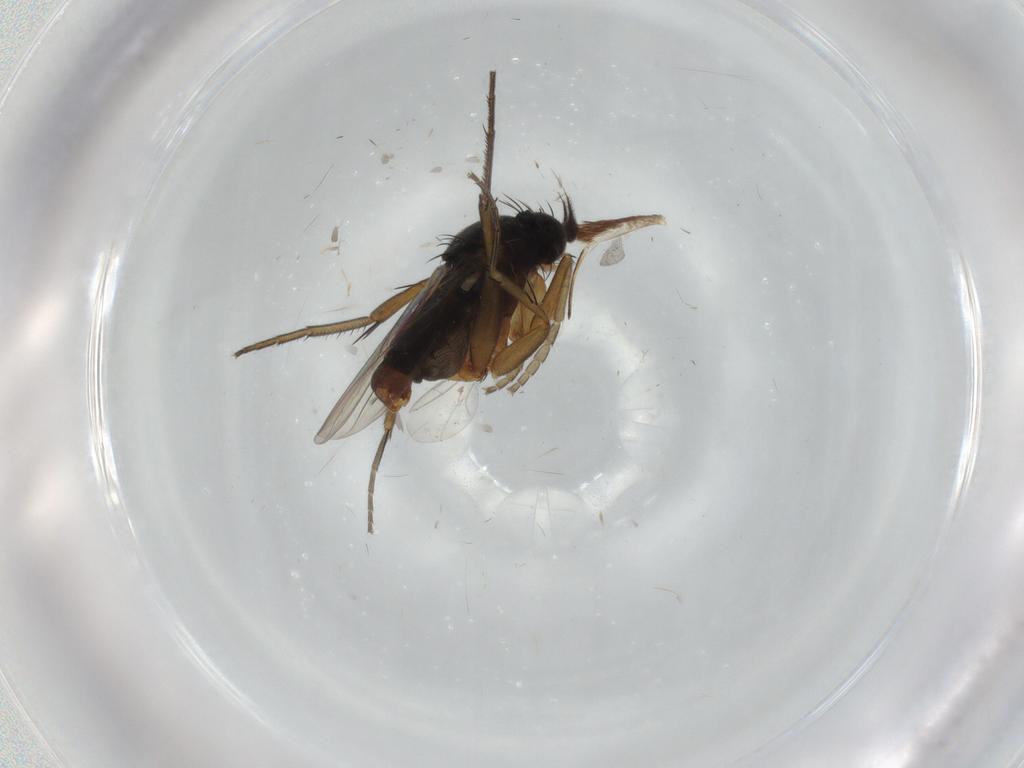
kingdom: Animalia
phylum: Arthropoda
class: Insecta
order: Diptera
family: Phoridae
